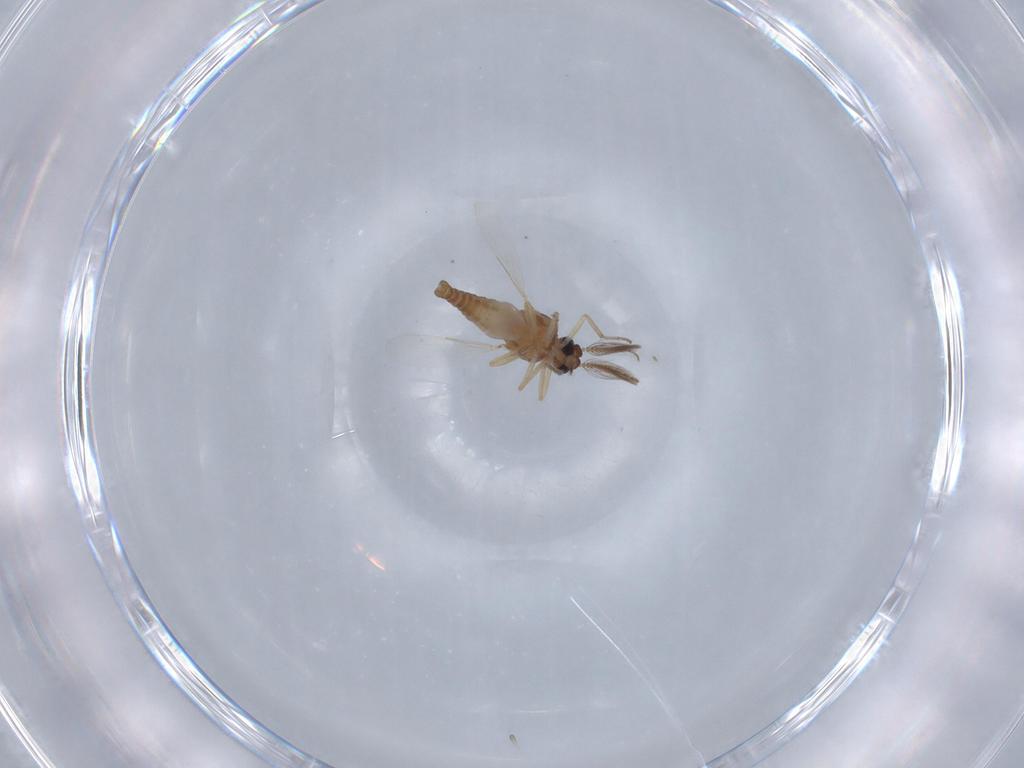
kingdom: Animalia
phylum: Arthropoda
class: Insecta
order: Diptera
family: Ceratopogonidae
